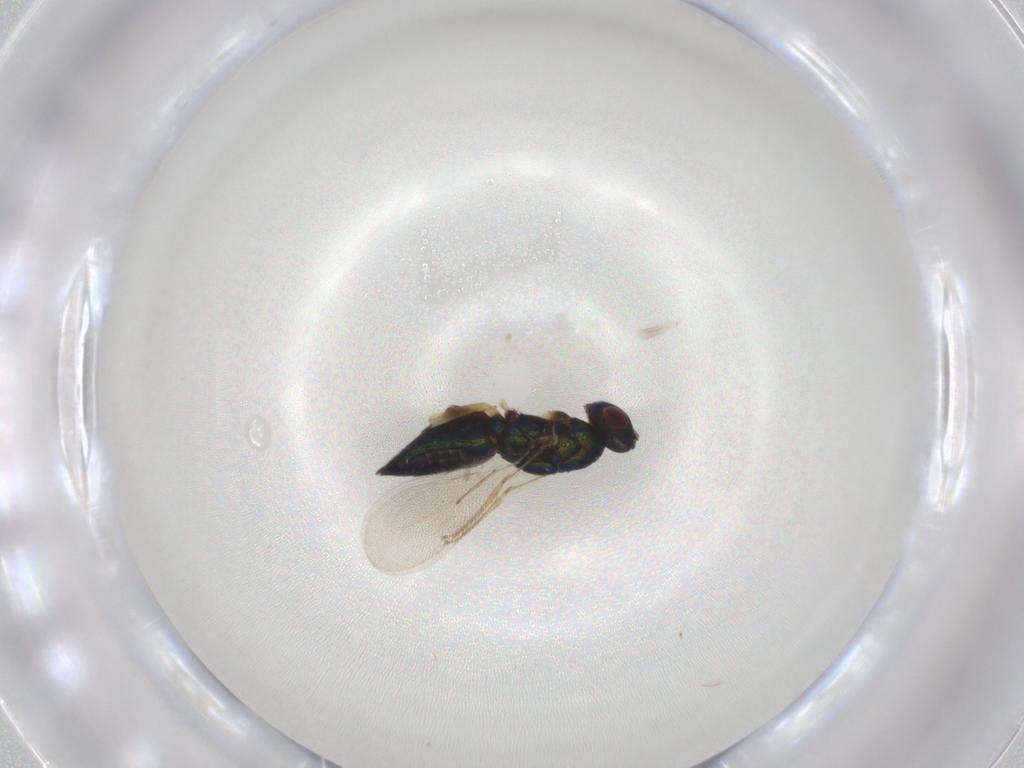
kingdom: Animalia
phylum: Arthropoda
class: Insecta
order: Hymenoptera
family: Eulophidae
